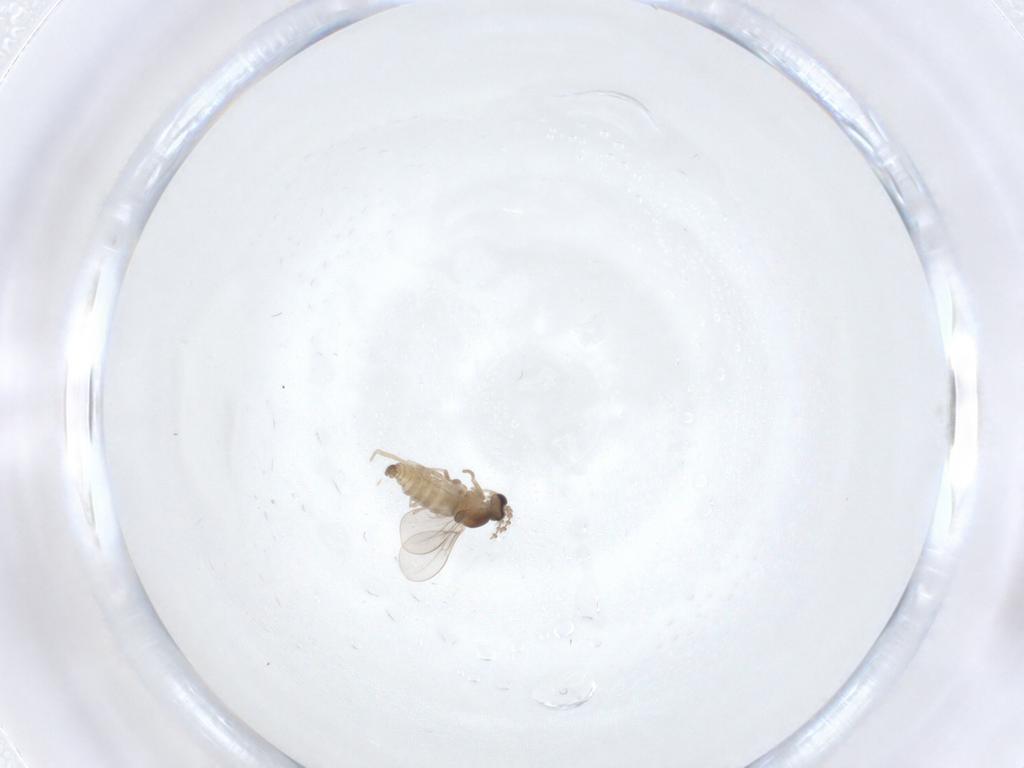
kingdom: Animalia
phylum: Arthropoda
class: Insecta
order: Diptera
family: Cecidomyiidae
